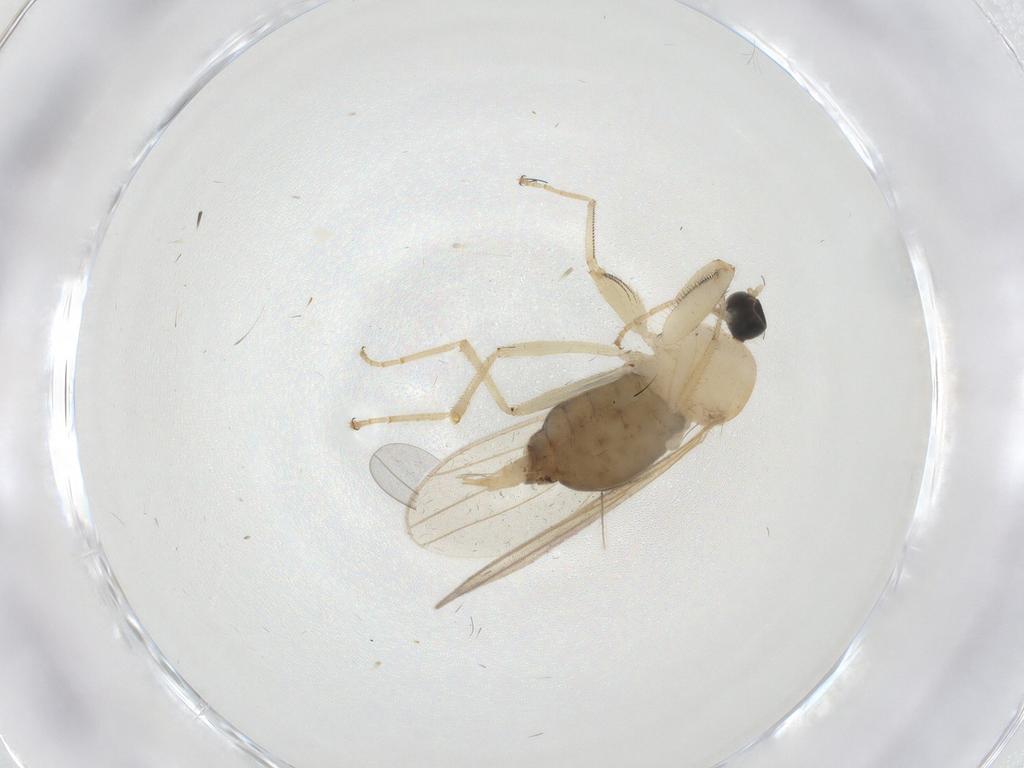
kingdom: Animalia
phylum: Arthropoda
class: Insecta
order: Diptera
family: Hybotidae
